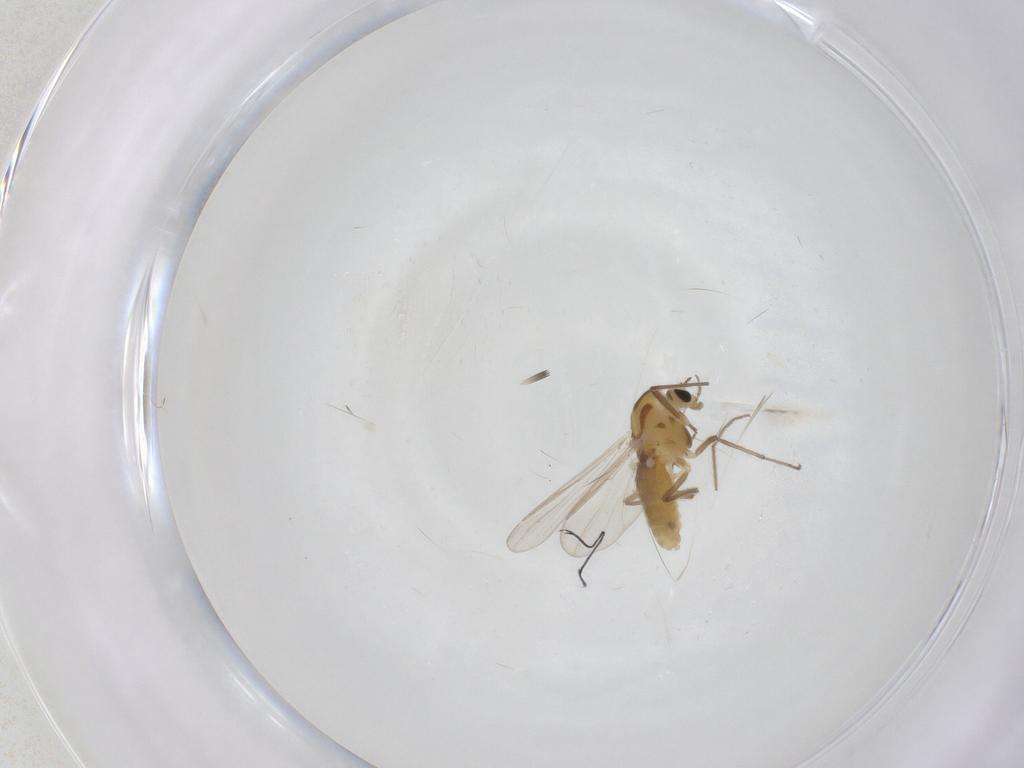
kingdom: Animalia
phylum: Arthropoda
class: Insecta
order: Diptera
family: Chironomidae
